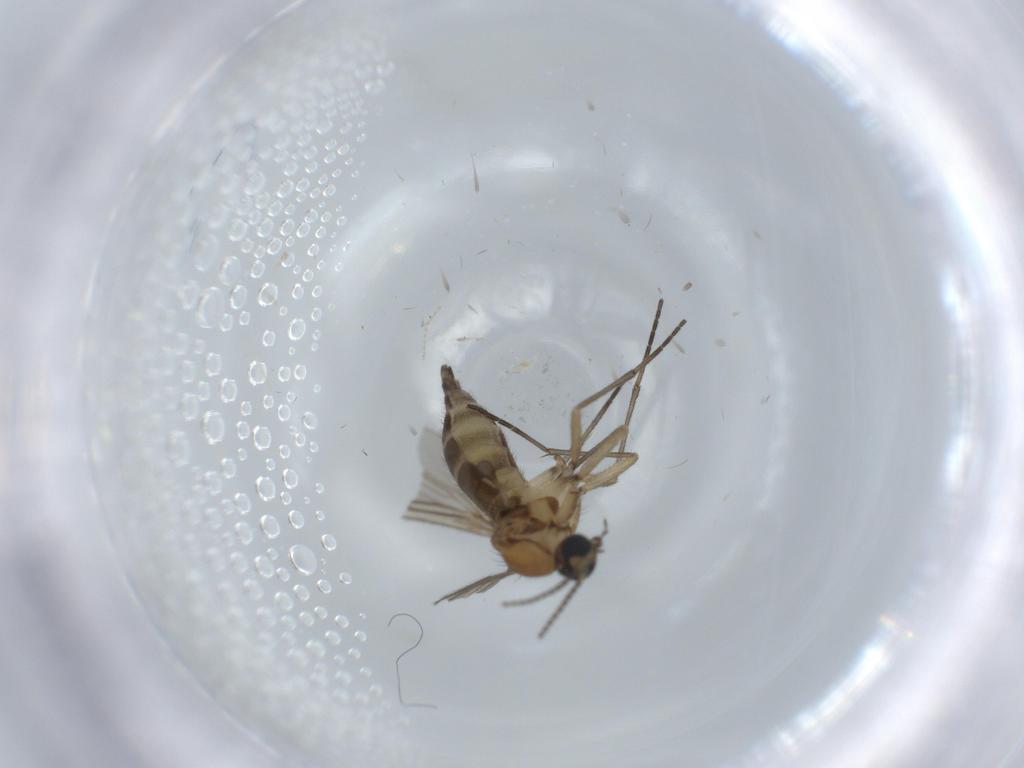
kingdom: Animalia
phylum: Arthropoda
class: Insecta
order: Diptera
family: Sciaridae
